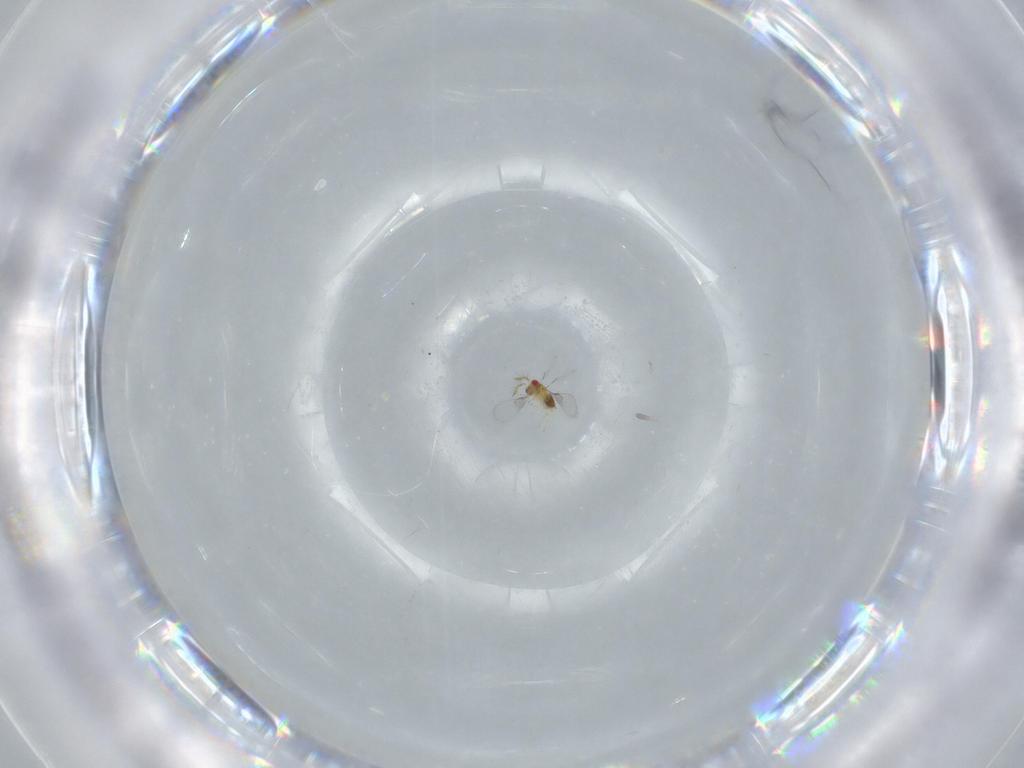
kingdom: Animalia
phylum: Arthropoda
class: Insecta
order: Hymenoptera
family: Trichogrammatidae
